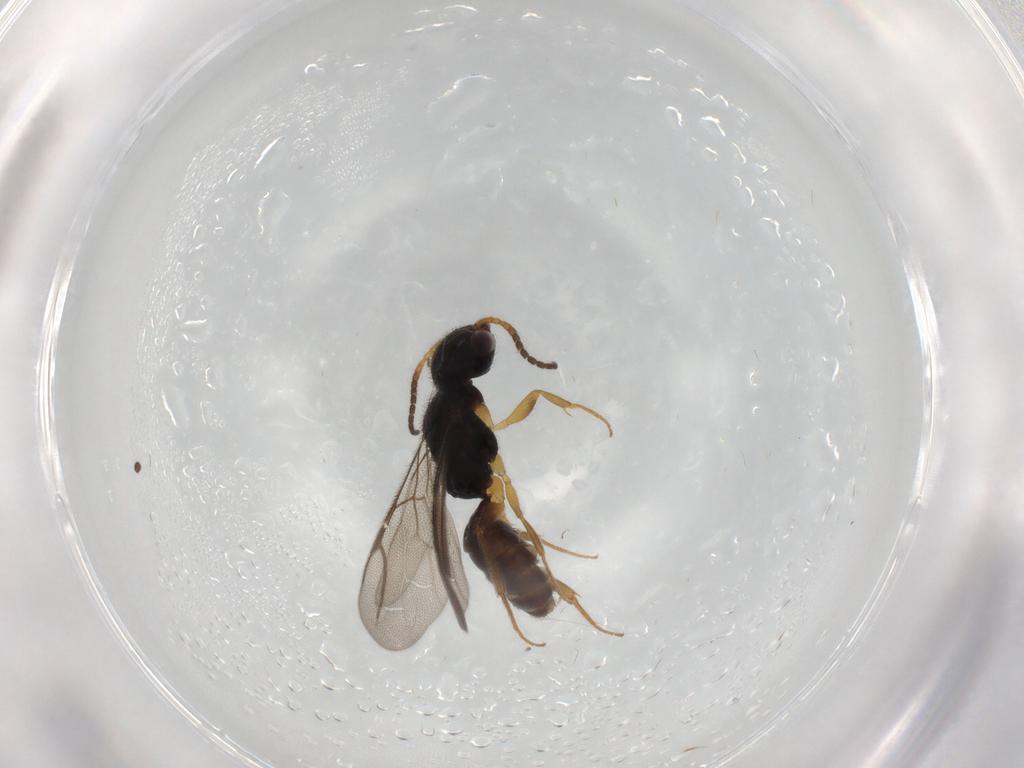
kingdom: Animalia
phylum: Arthropoda
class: Insecta
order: Hymenoptera
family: Bethylidae
